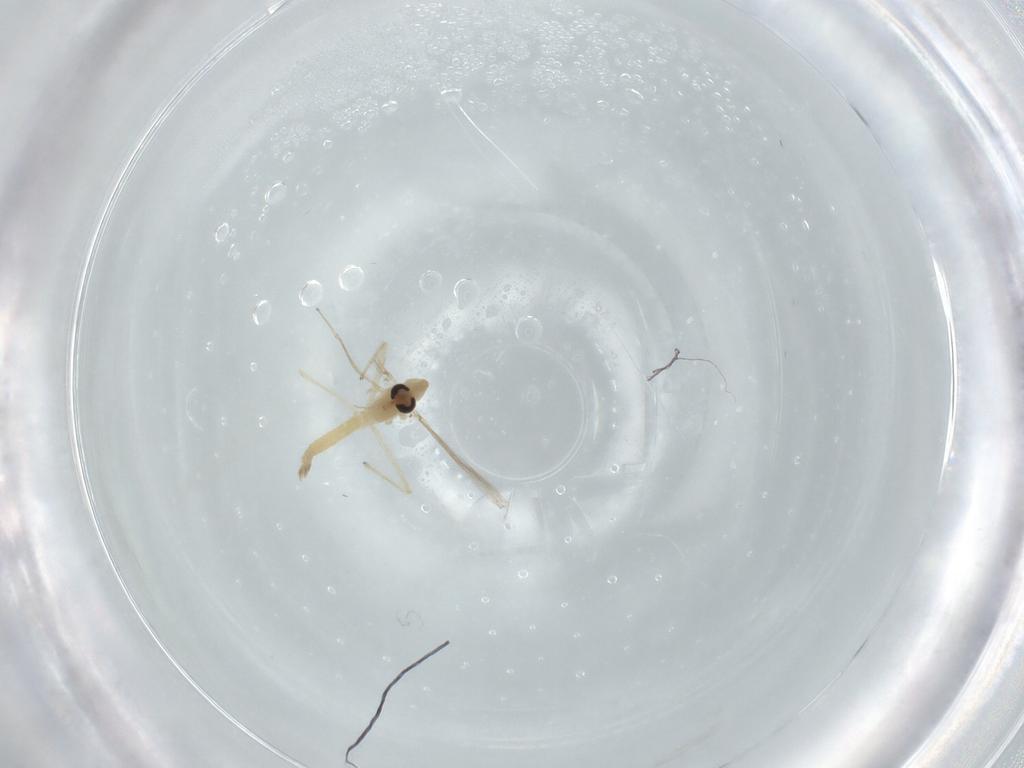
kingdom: Animalia
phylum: Arthropoda
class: Insecta
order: Diptera
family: Chironomidae
